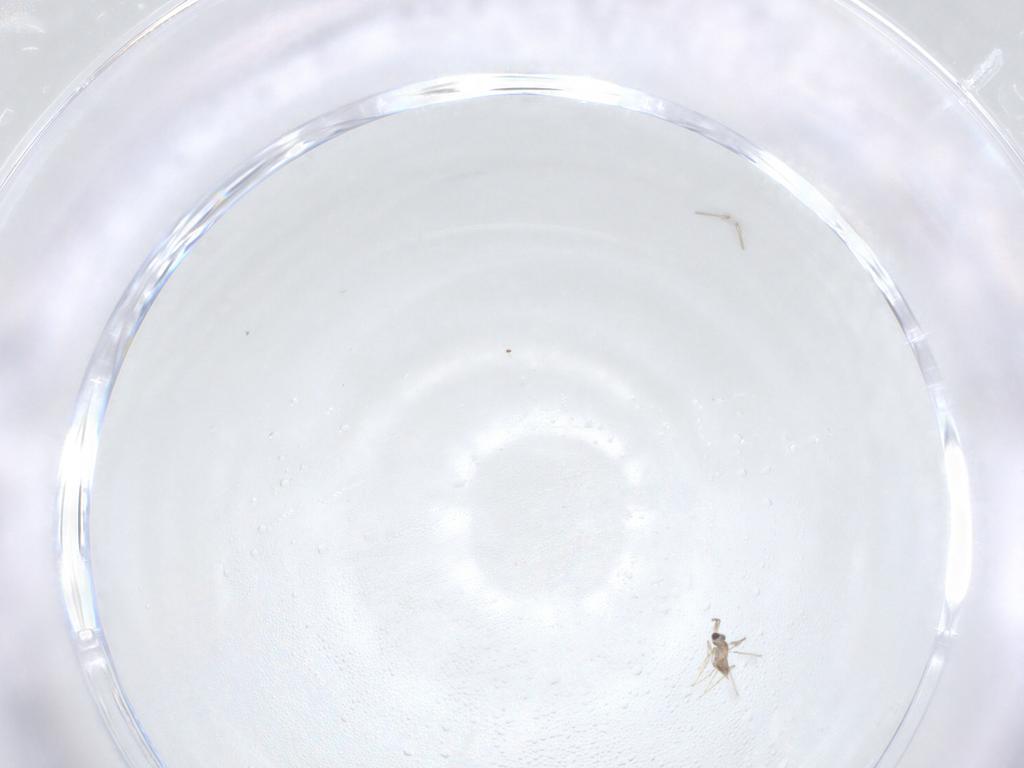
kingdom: Animalia
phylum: Arthropoda
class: Insecta
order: Hymenoptera
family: Mymaridae
